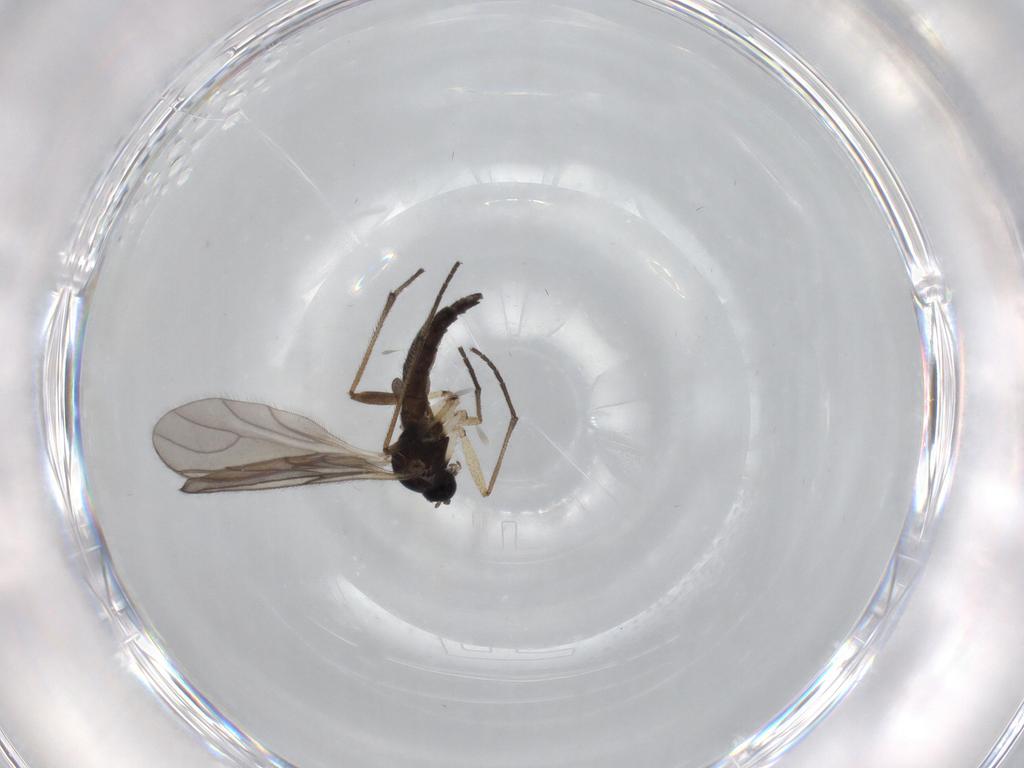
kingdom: Animalia
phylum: Arthropoda
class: Insecta
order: Diptera
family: Sciaridae
